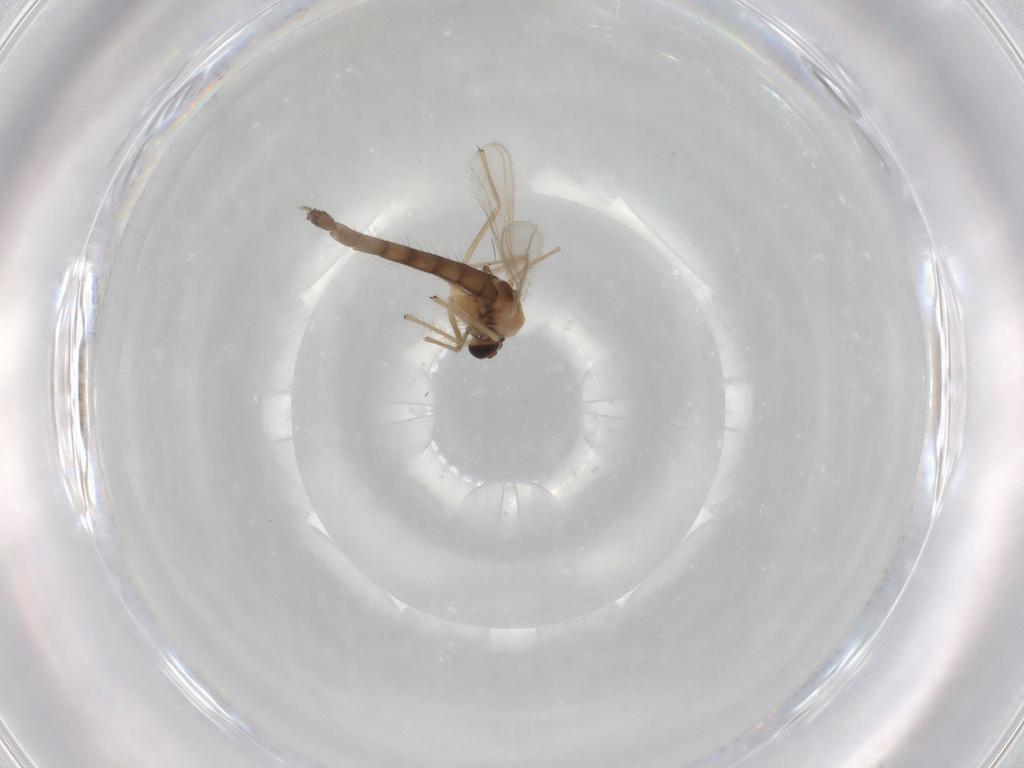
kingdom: Animalia
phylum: Arthropoda
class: Insecta
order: Diptera
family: Chironomidae
